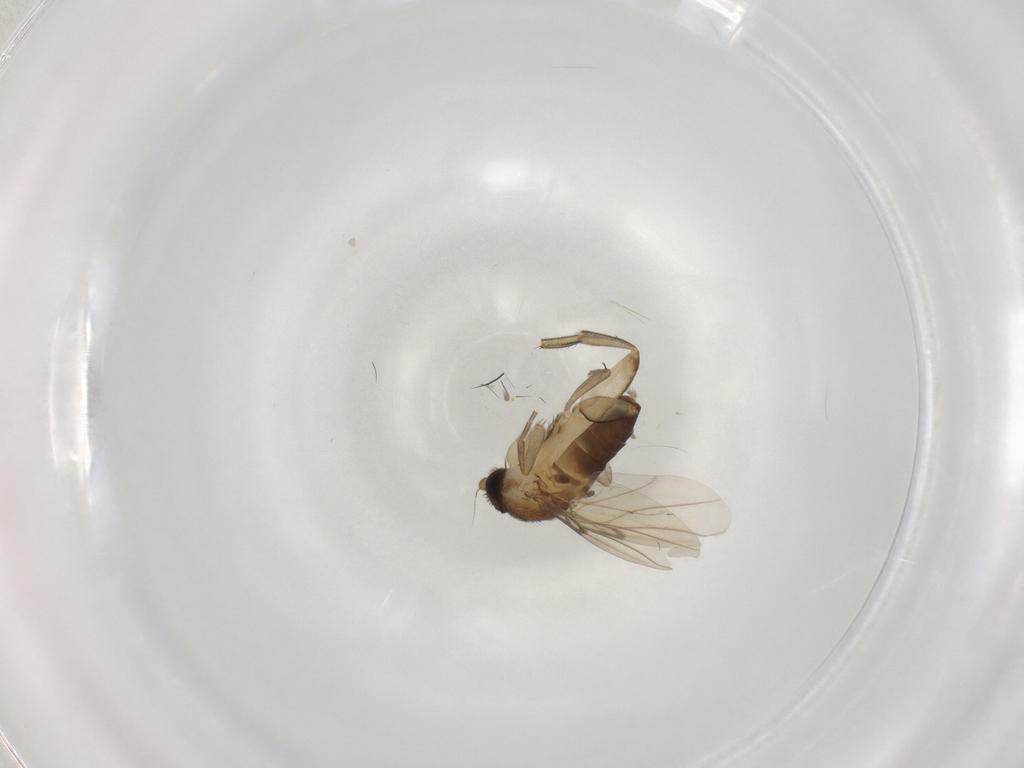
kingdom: Animalia
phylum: Arthropoda
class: Insecta
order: Diptera
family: Phoridae
